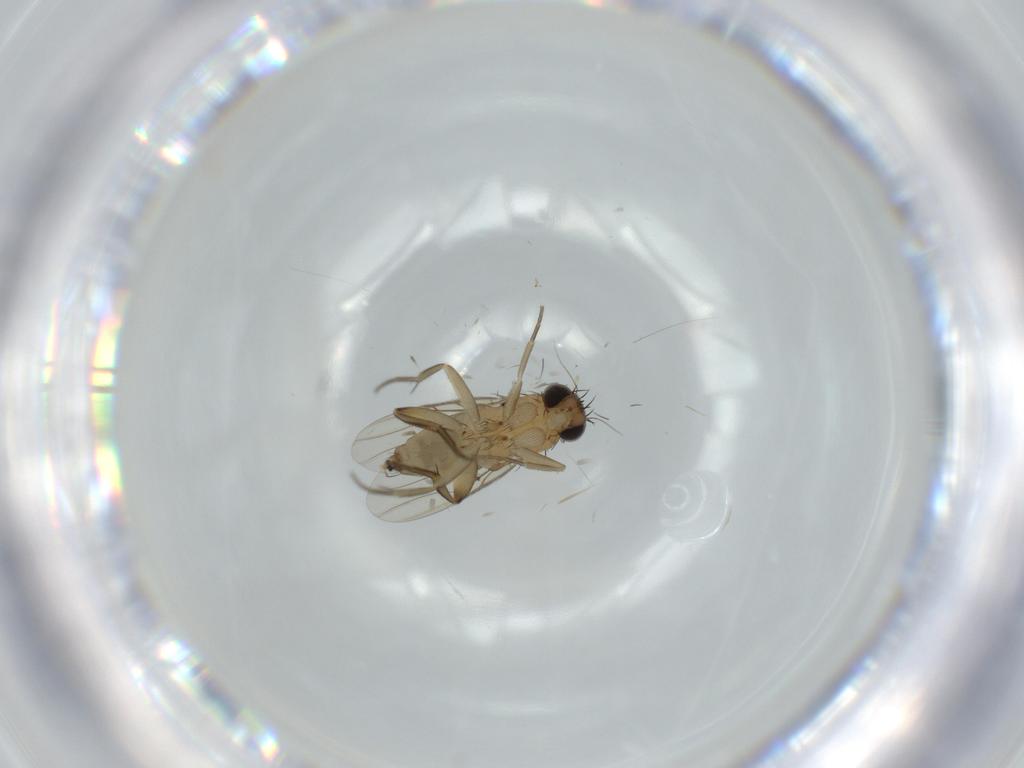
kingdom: Animalia
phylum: Arthropoda
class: Insecta
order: Diptera
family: Phoridae
